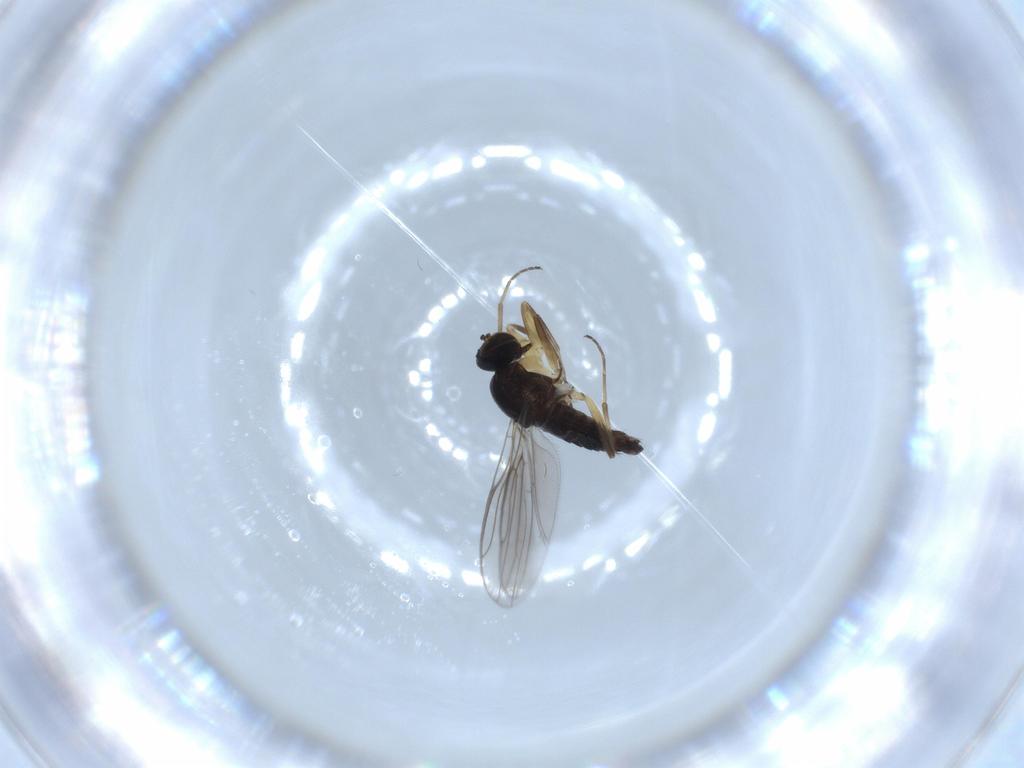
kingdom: Animalia
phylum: Arthropoda
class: Insecta
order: Diptera
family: Hybotidae
